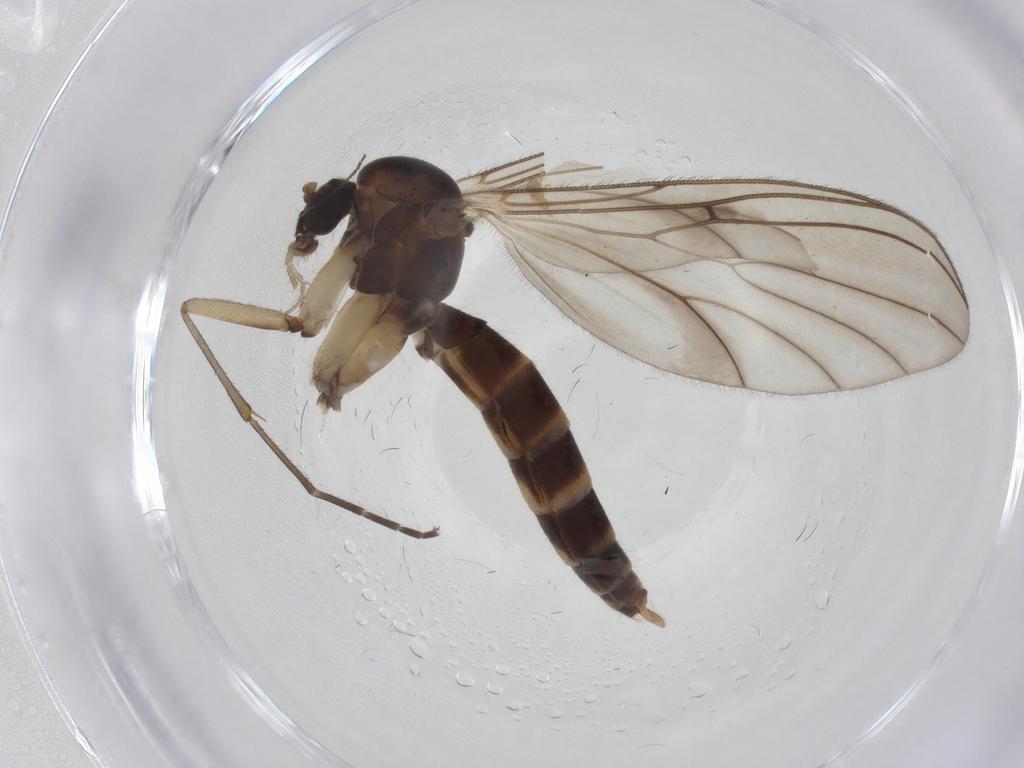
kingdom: Animalia
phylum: Arthropoda
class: Insecta
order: Diptera
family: Mycetophilidae
